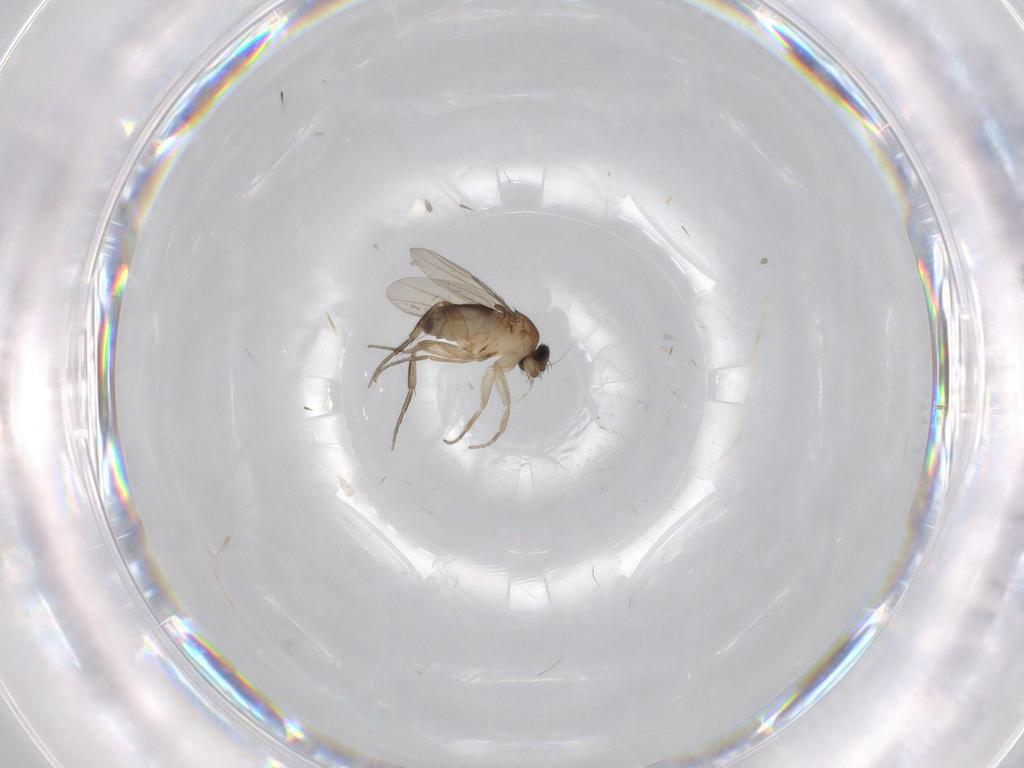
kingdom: Animalia
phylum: Arthropoda
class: Insecta
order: Diptera
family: Phoridae
